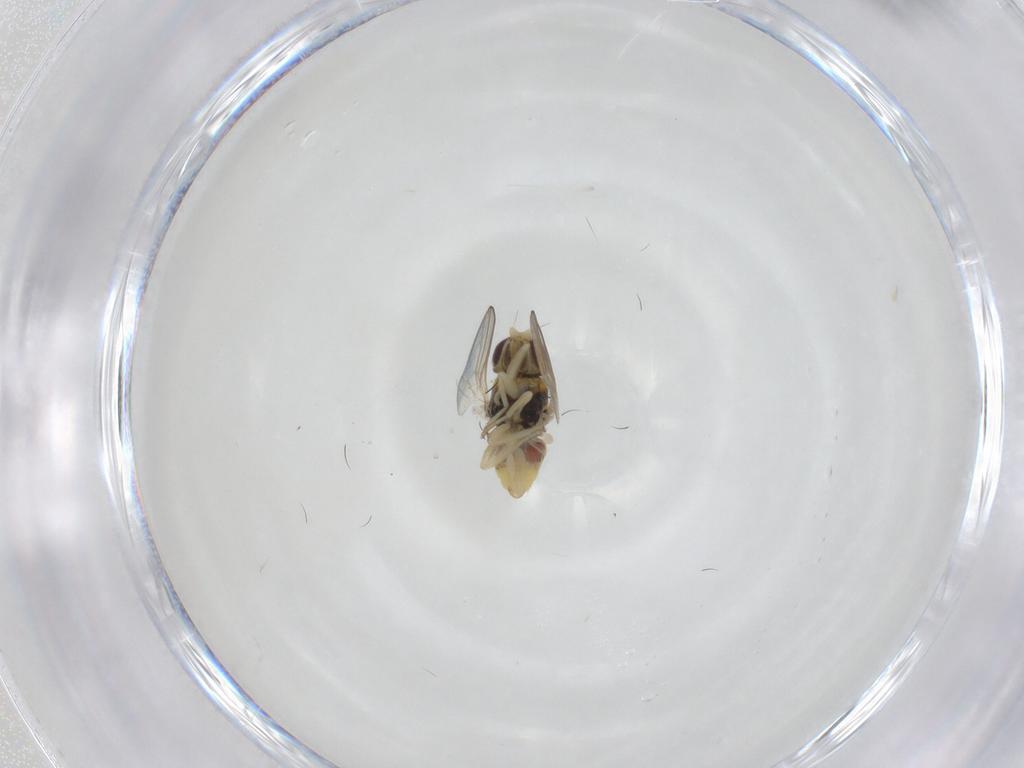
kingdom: Animalia
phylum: Arthropoda
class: Insecta
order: Diptera
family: Chloropidae
